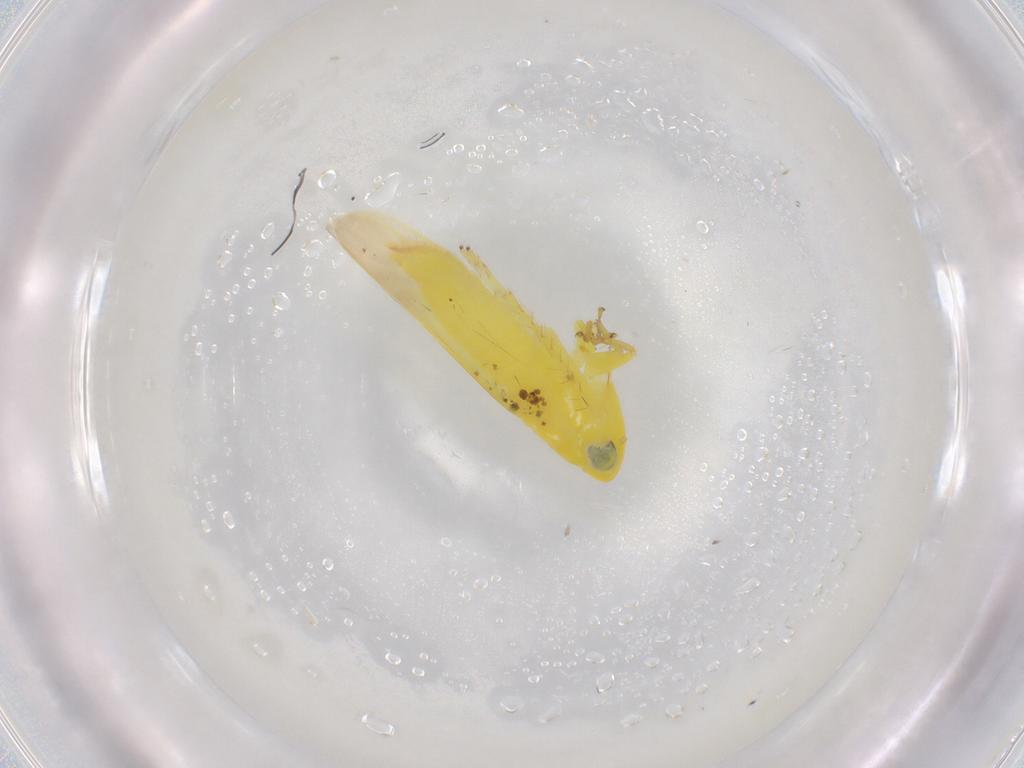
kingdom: Animalia
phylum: Arthropoda
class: Insecta
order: Hemiptera
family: Cicadellidae
